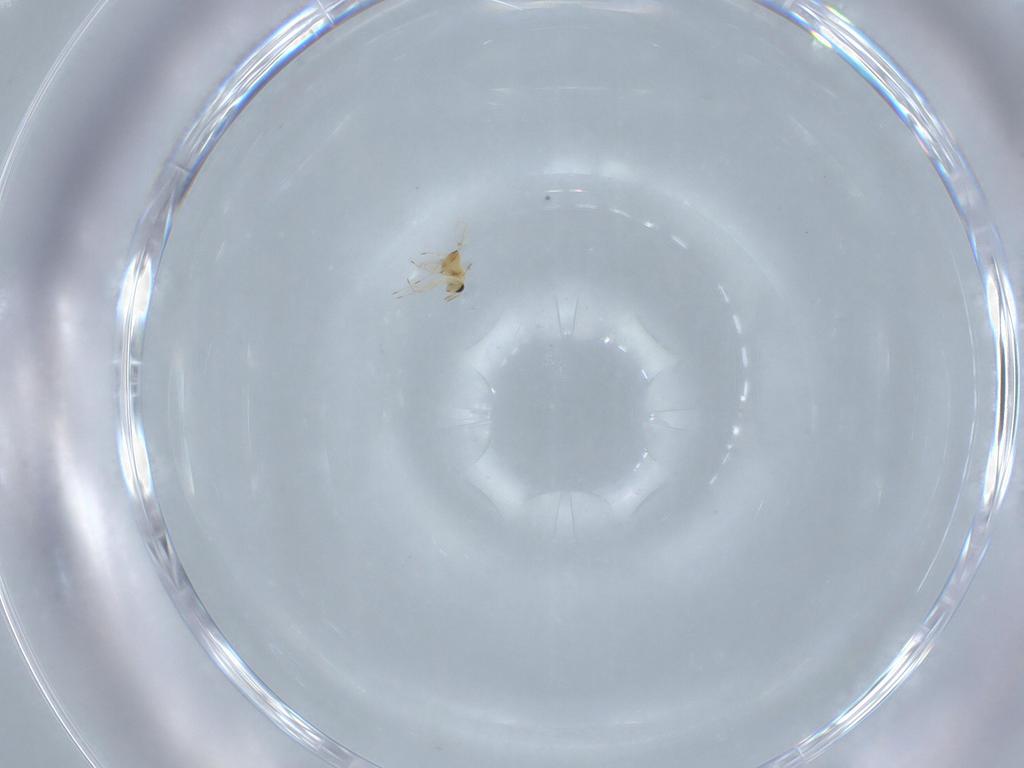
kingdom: Animalia
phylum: Arthropoda
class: Insecta
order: Hymenoptera
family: Trichogrammatidae
